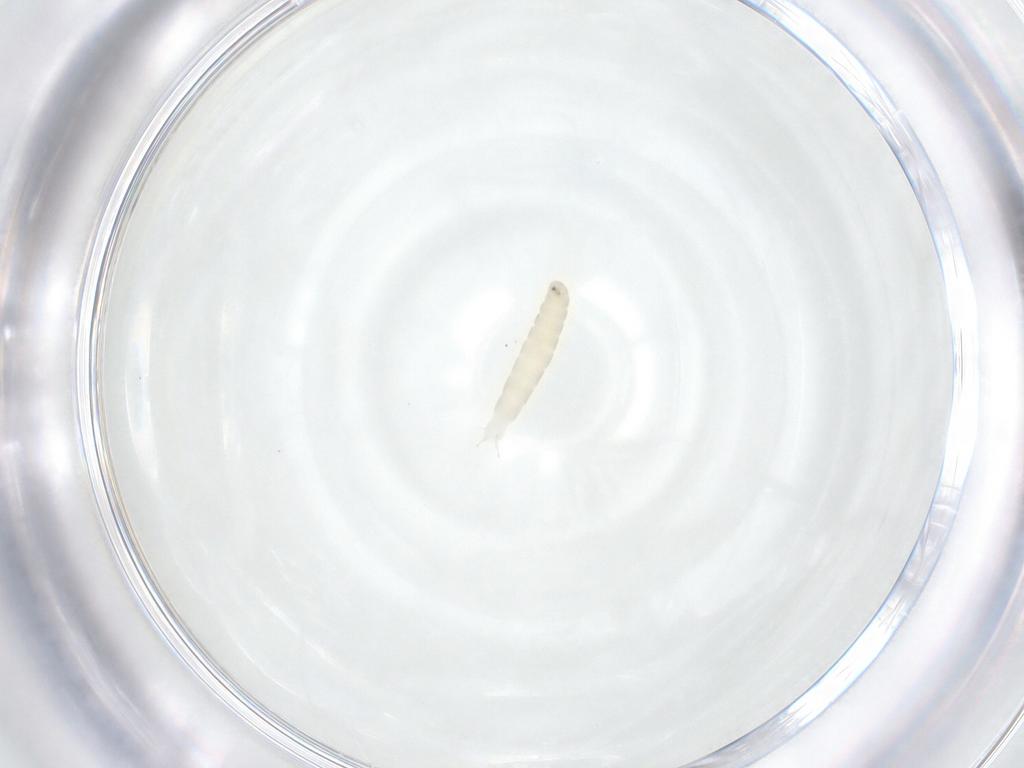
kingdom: Animalia
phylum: Arthropoda
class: Insecta
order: Diptera
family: Tachinidae
